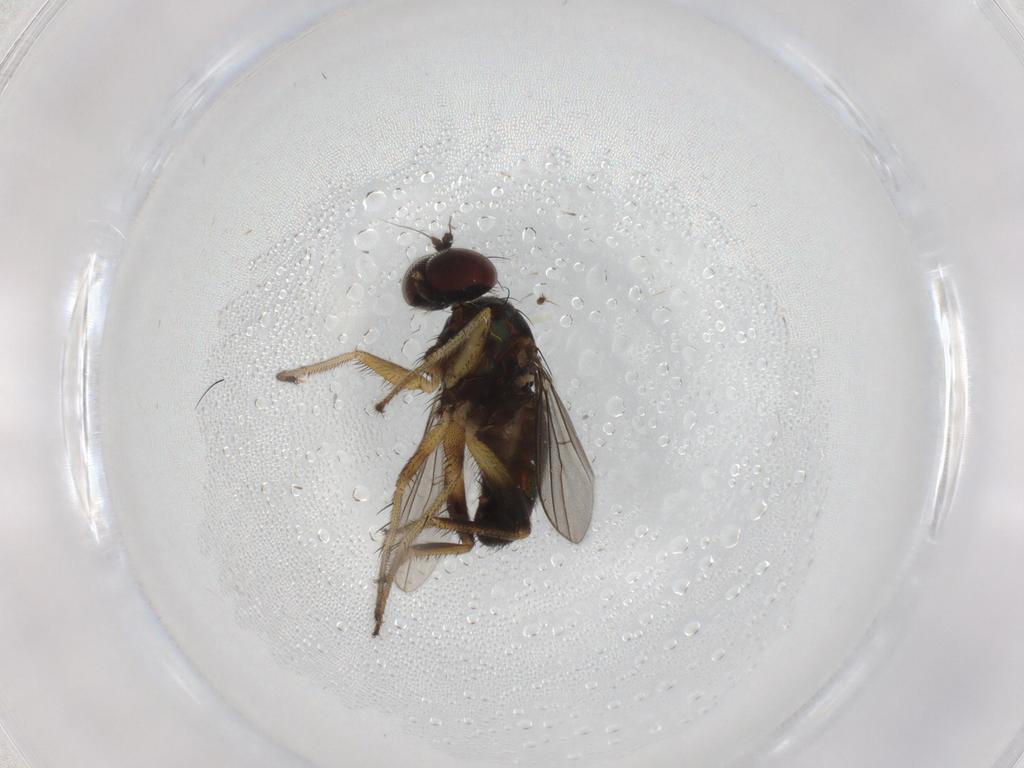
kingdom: Animalia
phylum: Arthropoda
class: Insecta
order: Diptera
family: Dolichopodidae
